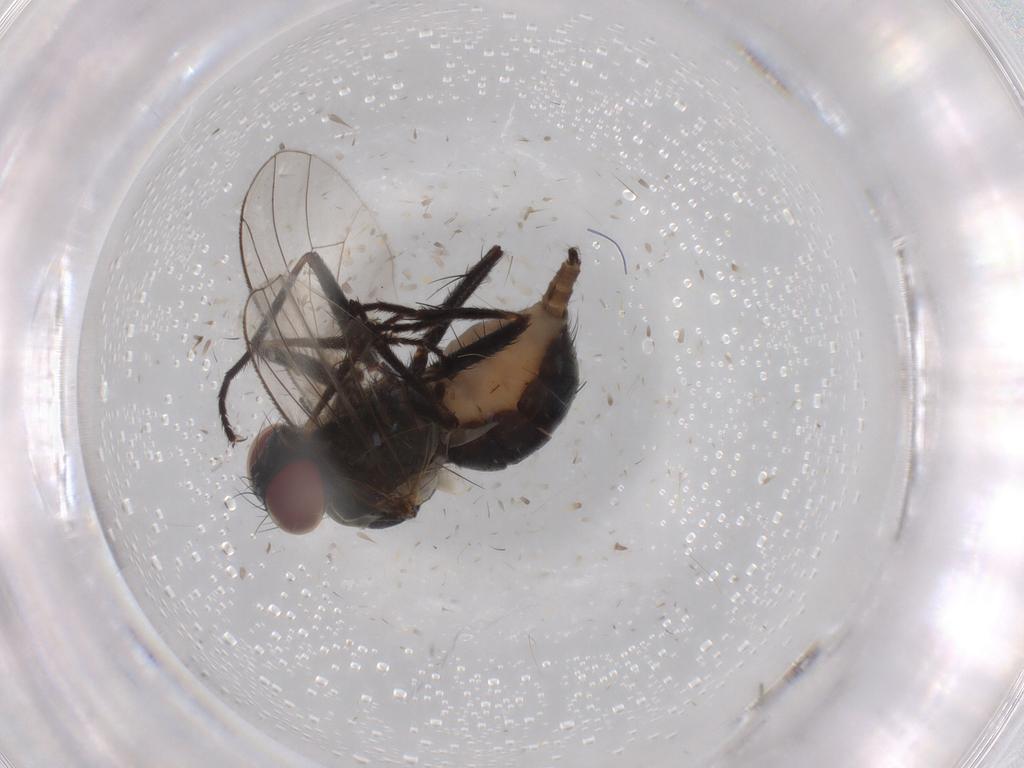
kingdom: Animalia
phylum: Arthropoda
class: Insecta
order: Diptera
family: Muscidae
